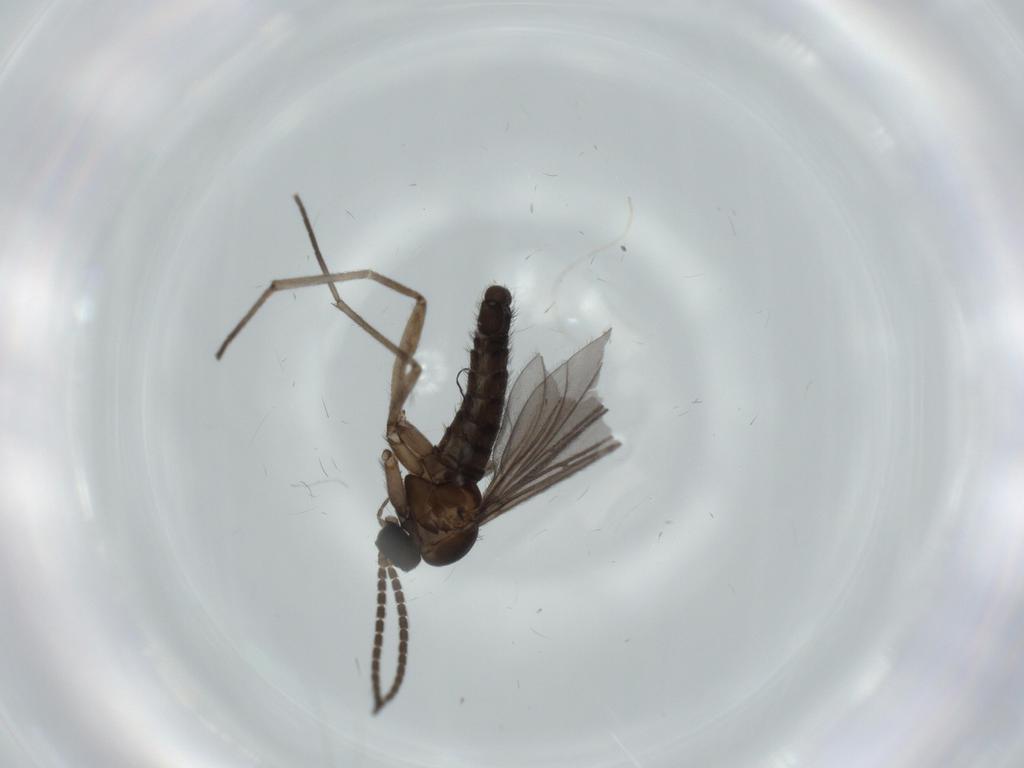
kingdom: Animalia
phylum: Arthropoda
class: Insecta
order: Diptera
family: Sciaridae
